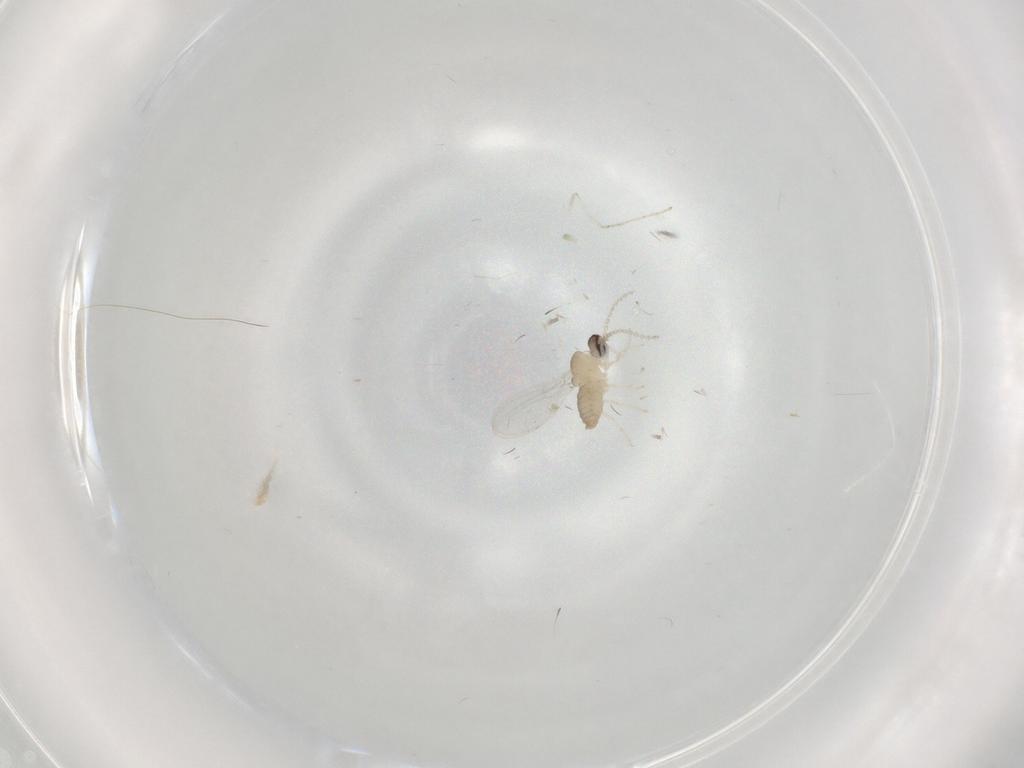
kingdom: Animalia
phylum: Arthropoda
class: Insecta
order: Diptera
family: Cecidomyiidae
